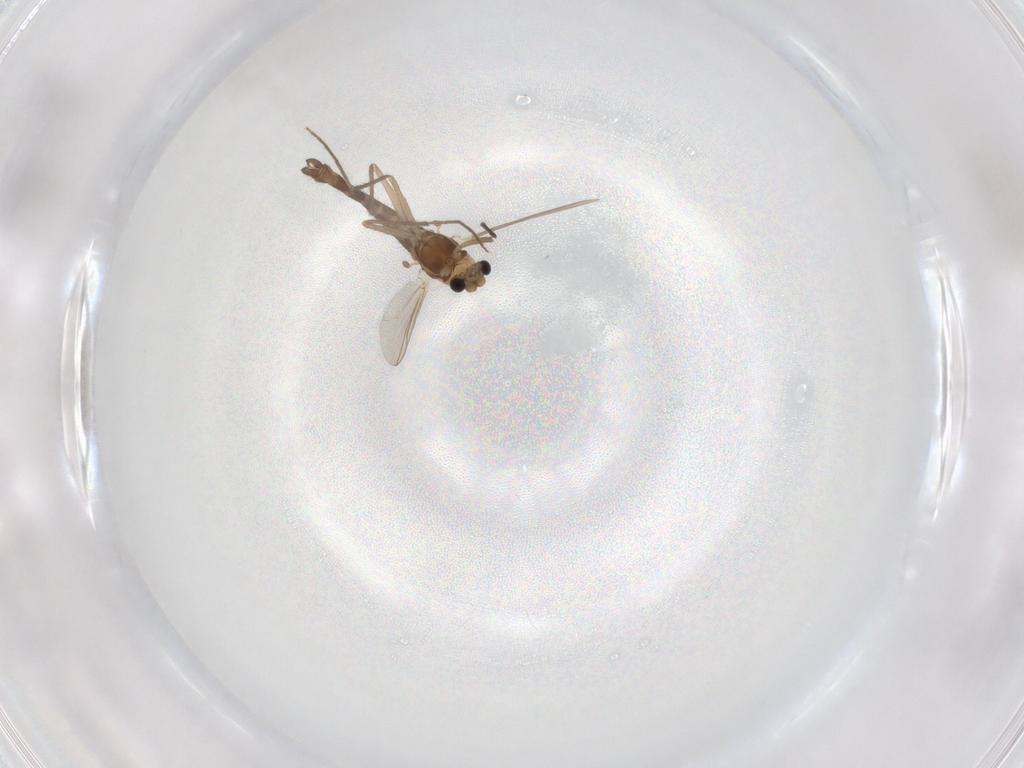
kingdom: Animalia
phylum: Arthropoda
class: Insecta
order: Diptera
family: Chironomidae
